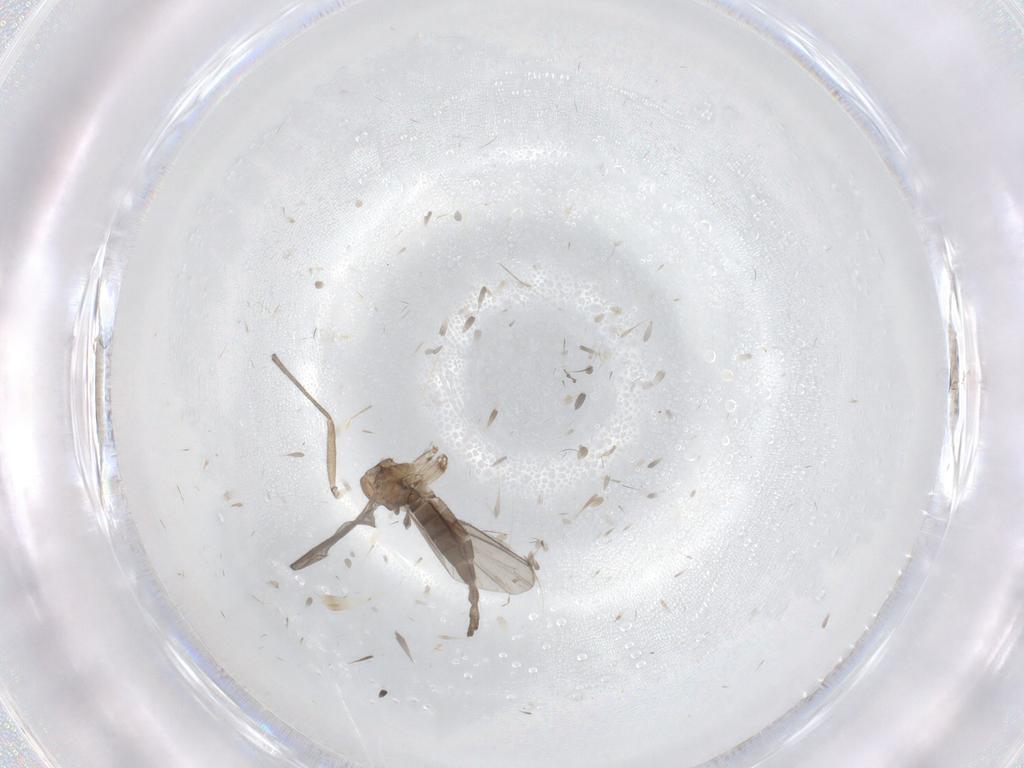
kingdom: Animalia
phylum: Arthropoda
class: Insecta
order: Diptera
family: Sciaridae
